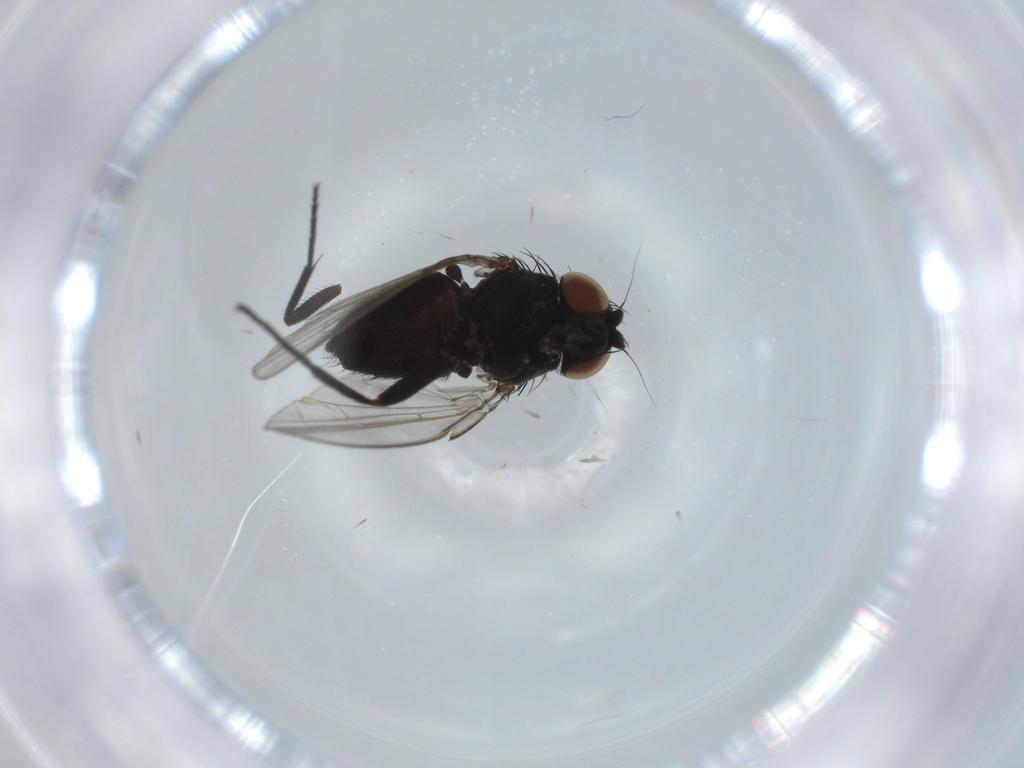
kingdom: Animalia
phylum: Arthropoda
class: Insecta
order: Diptera
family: Milichiidae
